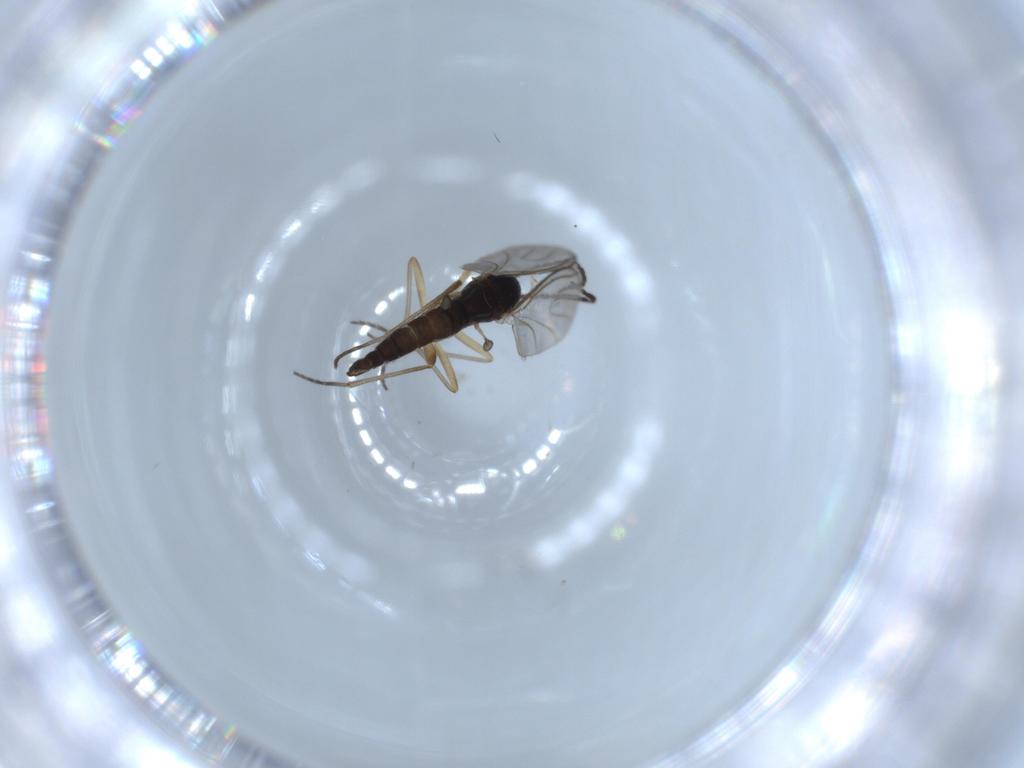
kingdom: Animalia
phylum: Arthropoda
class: Insecta
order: Diptera
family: Sciaridae
